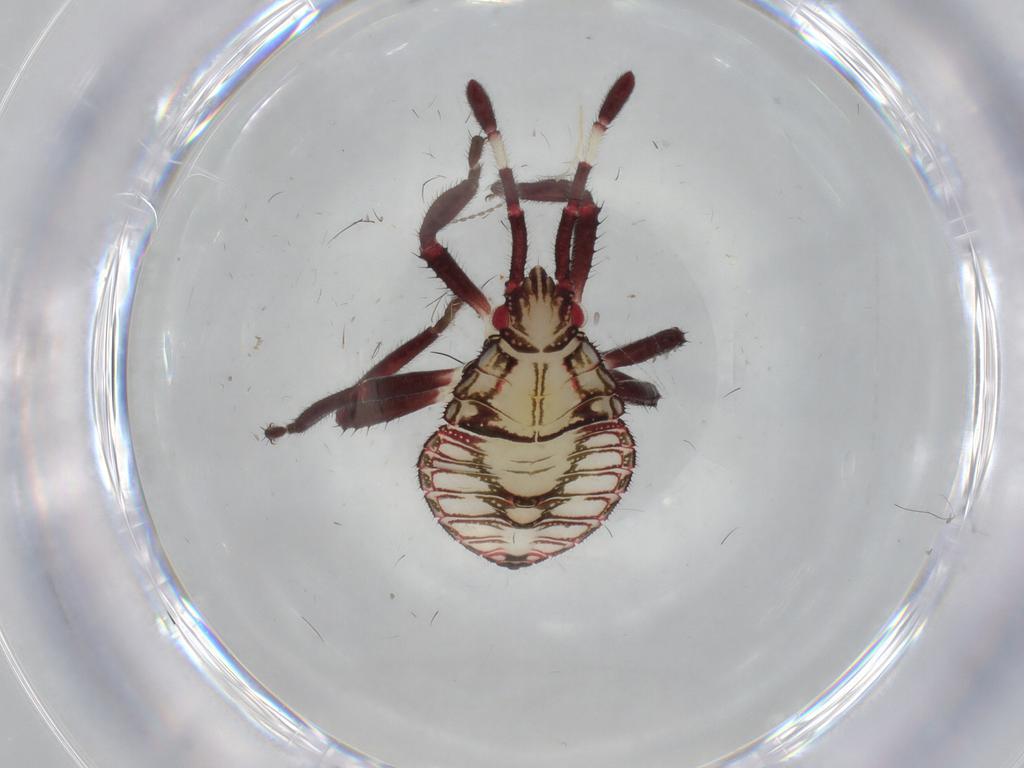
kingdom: Animalia
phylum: Arthropoda
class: Insecta
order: Hemiptera
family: Coreidae
